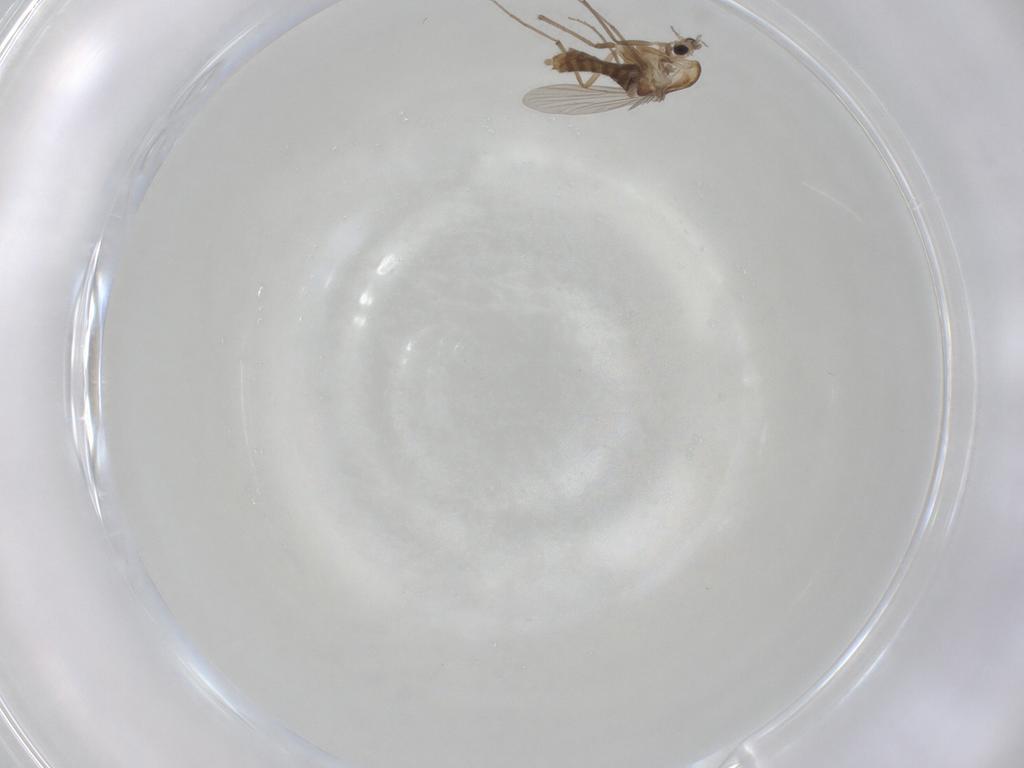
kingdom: Animalia
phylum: Arthropoda
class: Insecta
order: Diptera
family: Chironomidae
